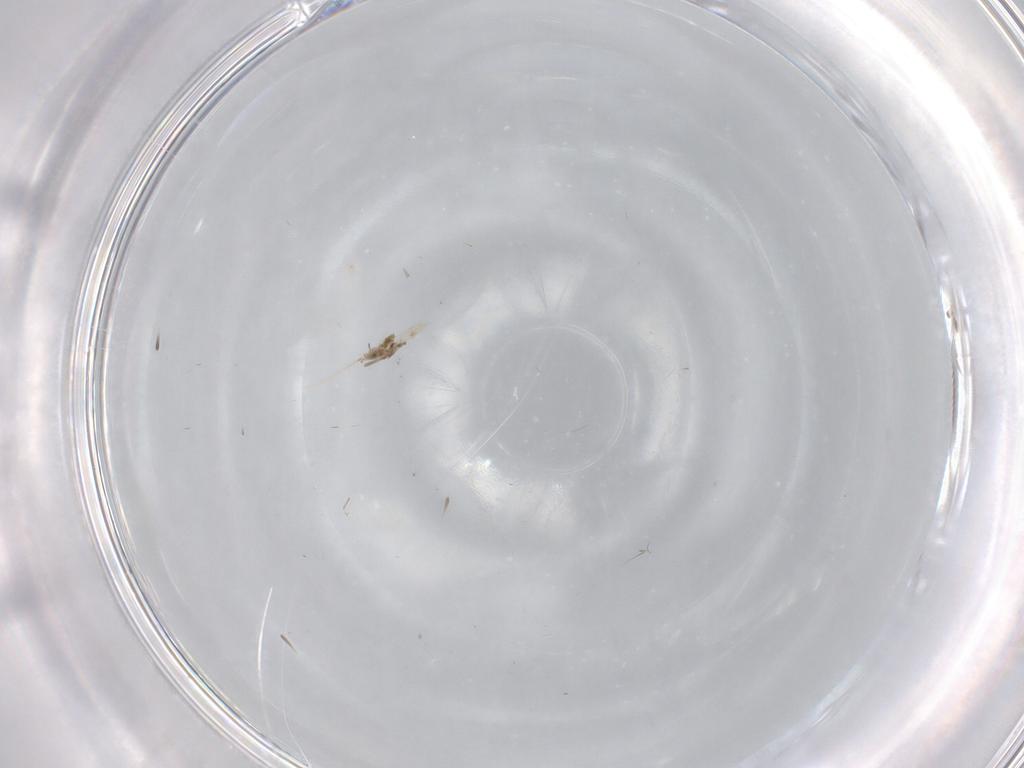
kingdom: Animalia
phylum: Arthropoda
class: Insecta
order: Diptera
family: Cecidomyiidae
